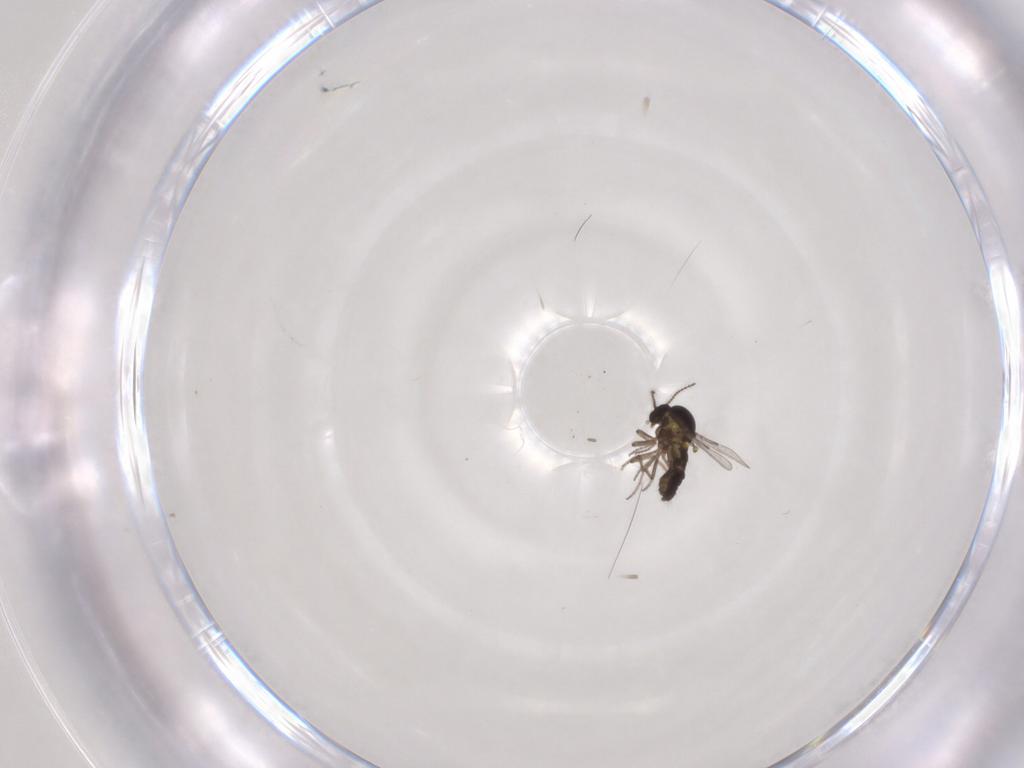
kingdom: Animalia
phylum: Arthropoda
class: Insecta
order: Diptera
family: Ceratopogonidae
